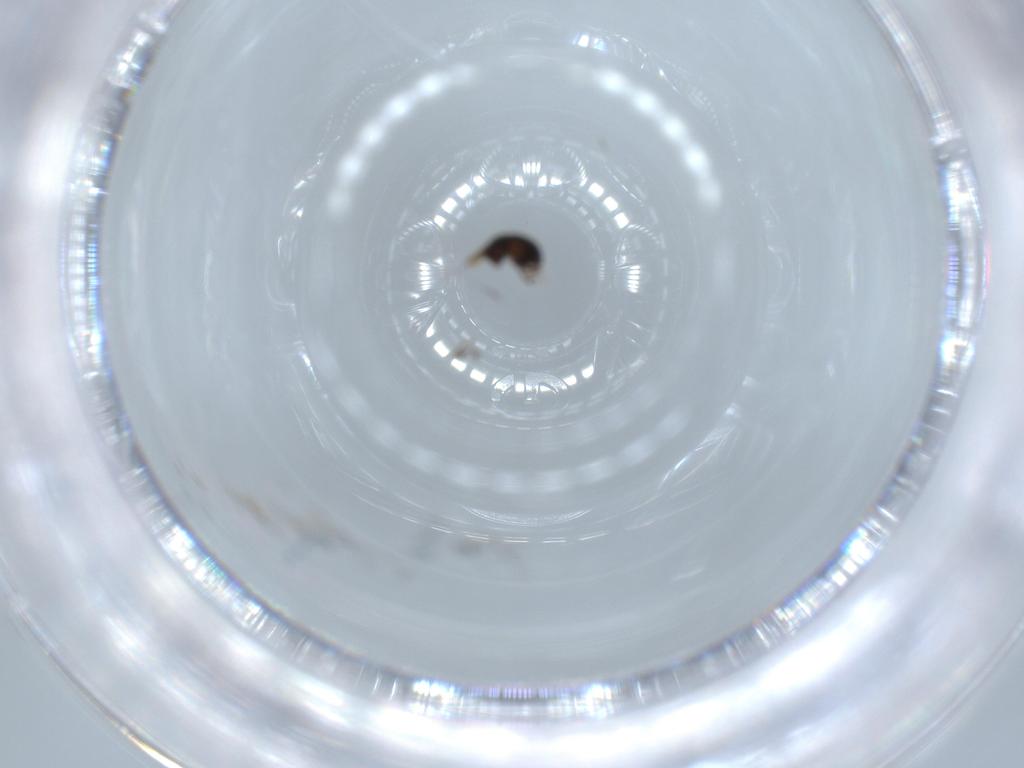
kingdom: Animalia
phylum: Arthropoda
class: Insecta
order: Hymenoptera
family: Scelionidae
